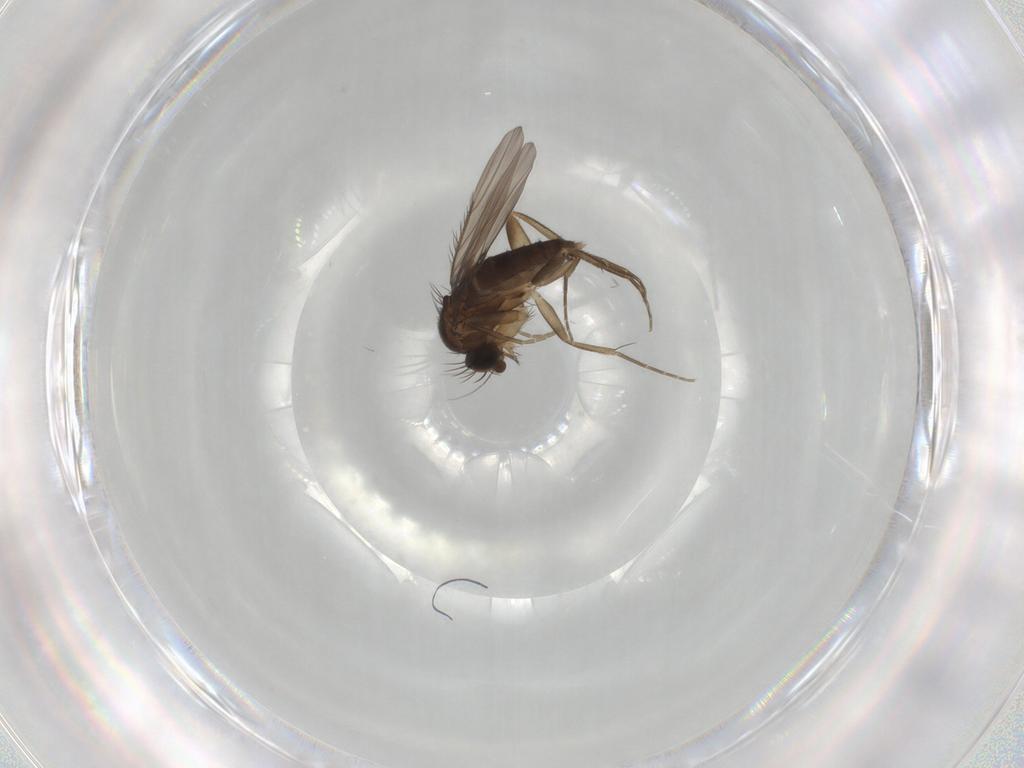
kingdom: Animalia
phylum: Arthropoda
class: Insecta
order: Diptera
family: Phoridae
